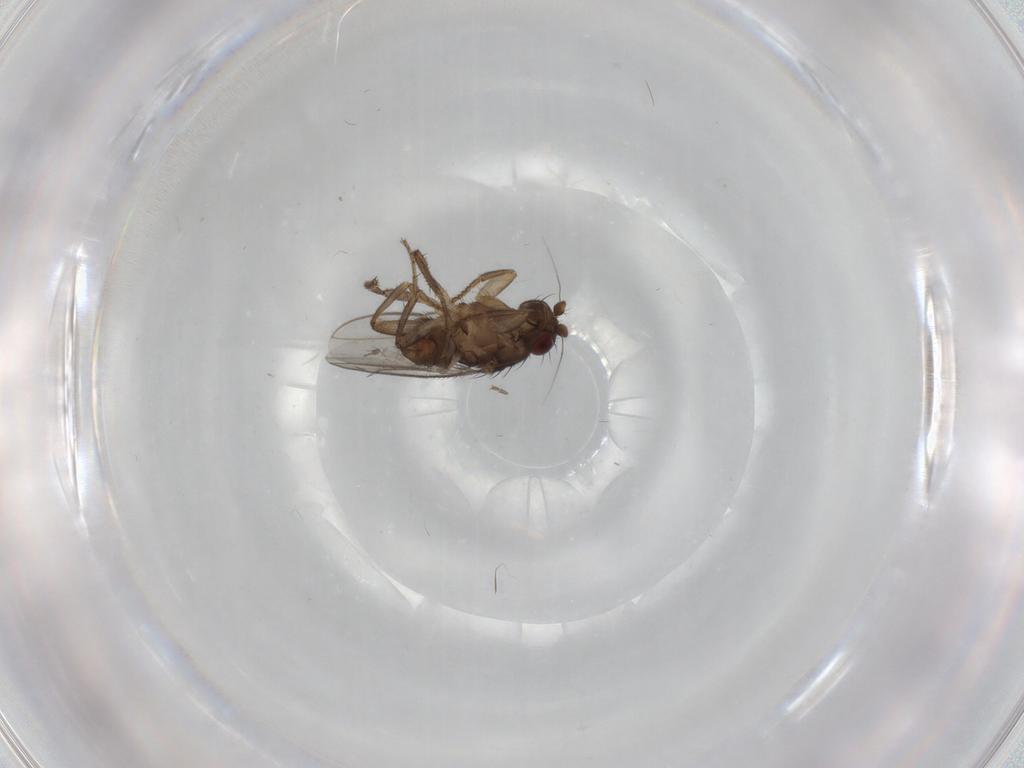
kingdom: Animalia
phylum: Arthropoda
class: Insecta
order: Diptera
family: Sphaeroceridae
